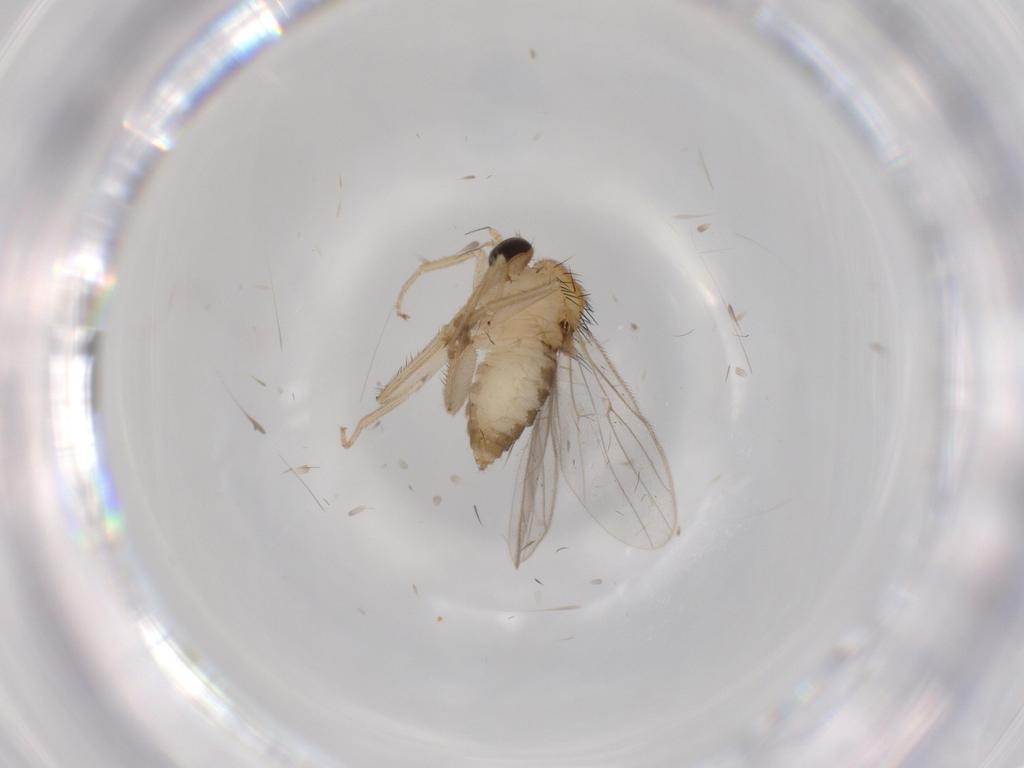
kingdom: Animalia
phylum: Arthropoda
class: Insecta
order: Diptera
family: Hybotidae
